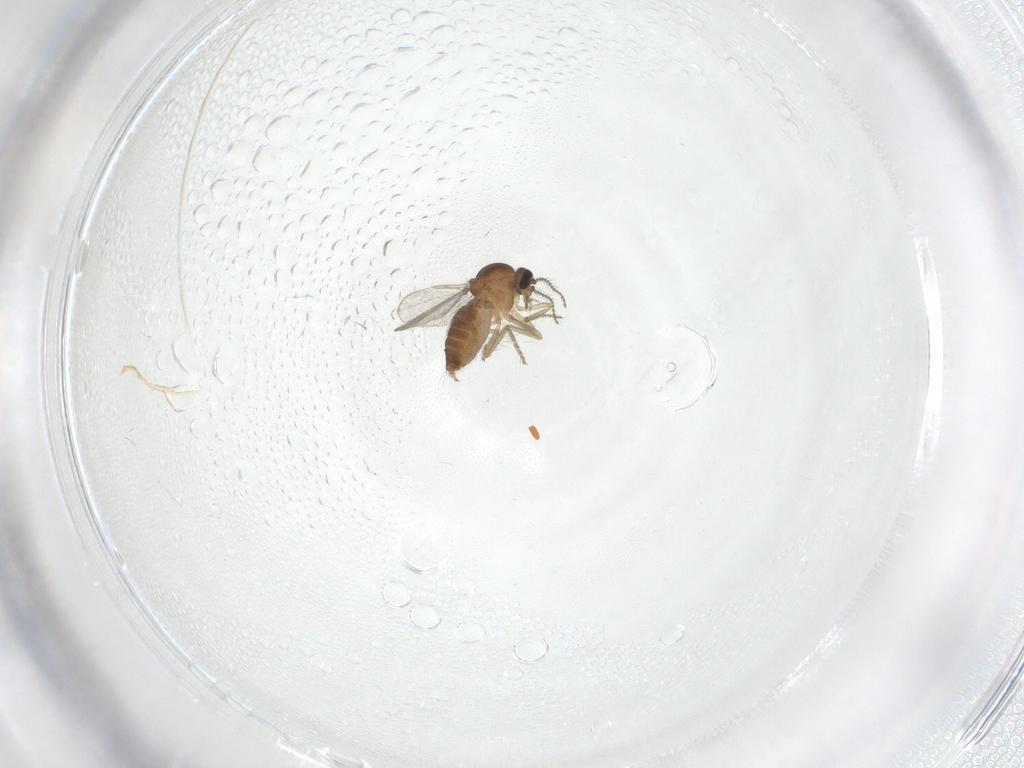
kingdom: Animalia
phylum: Arthropoda
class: Insecta
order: Diptera
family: Ceratopogonidae
